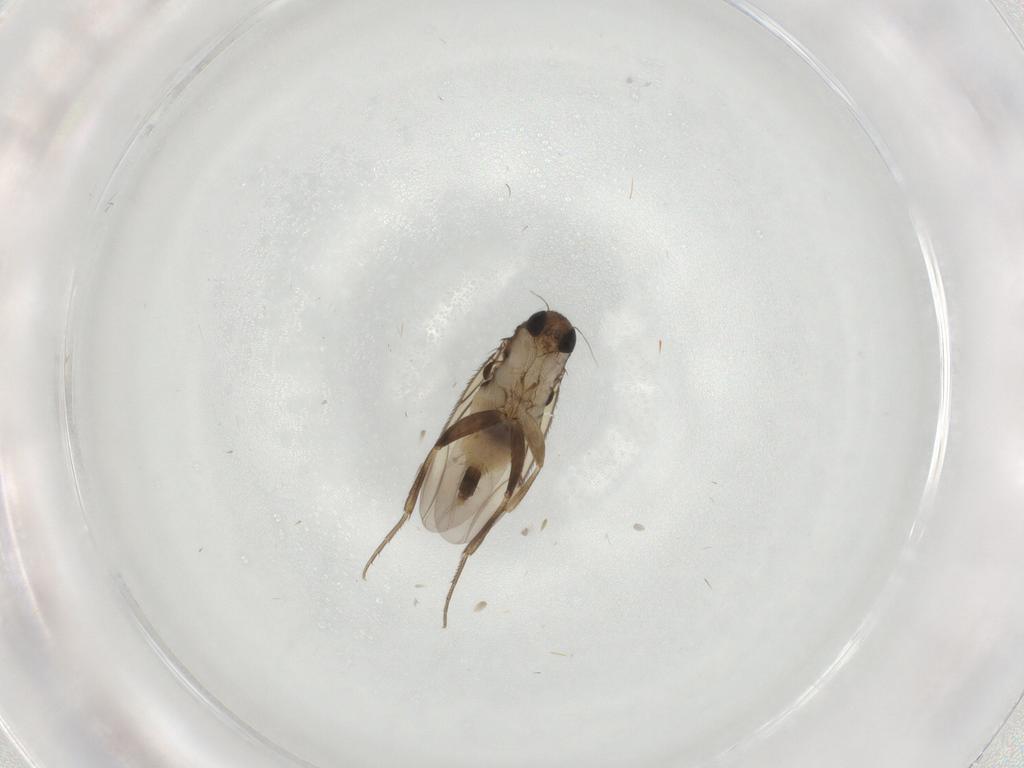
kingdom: Animalia
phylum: Arthropoda
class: Insecta
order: Diptera
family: Phoridae
